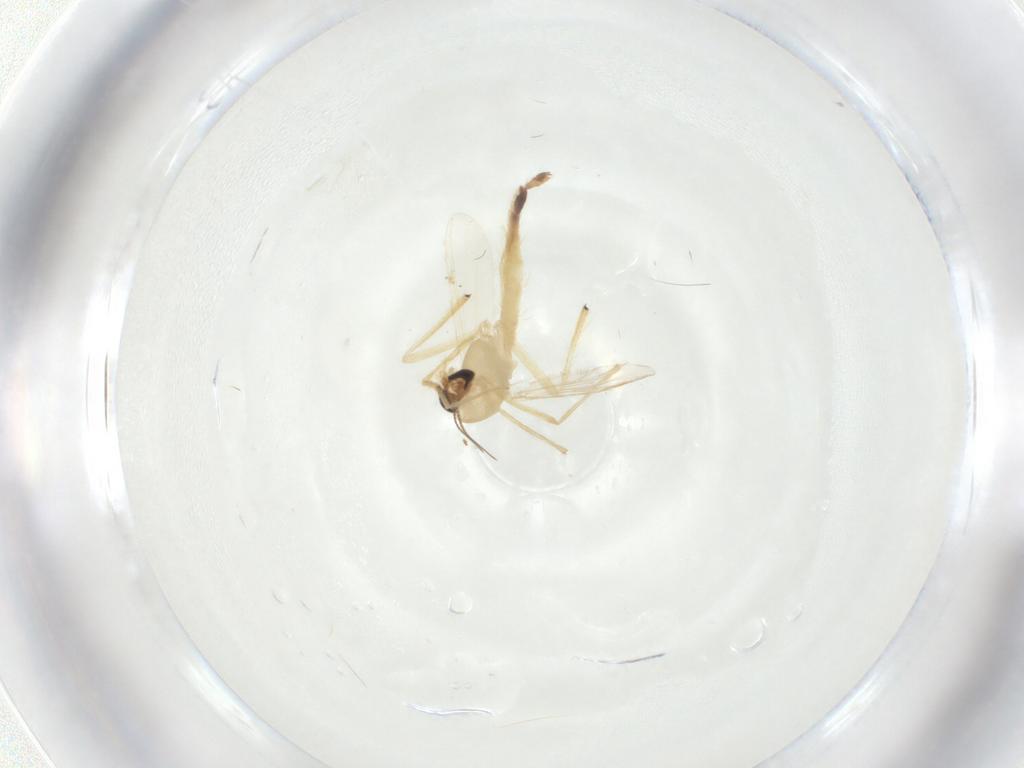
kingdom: Animalia
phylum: Arthropoda
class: Insecta
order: Diptera
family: Chironomidae
